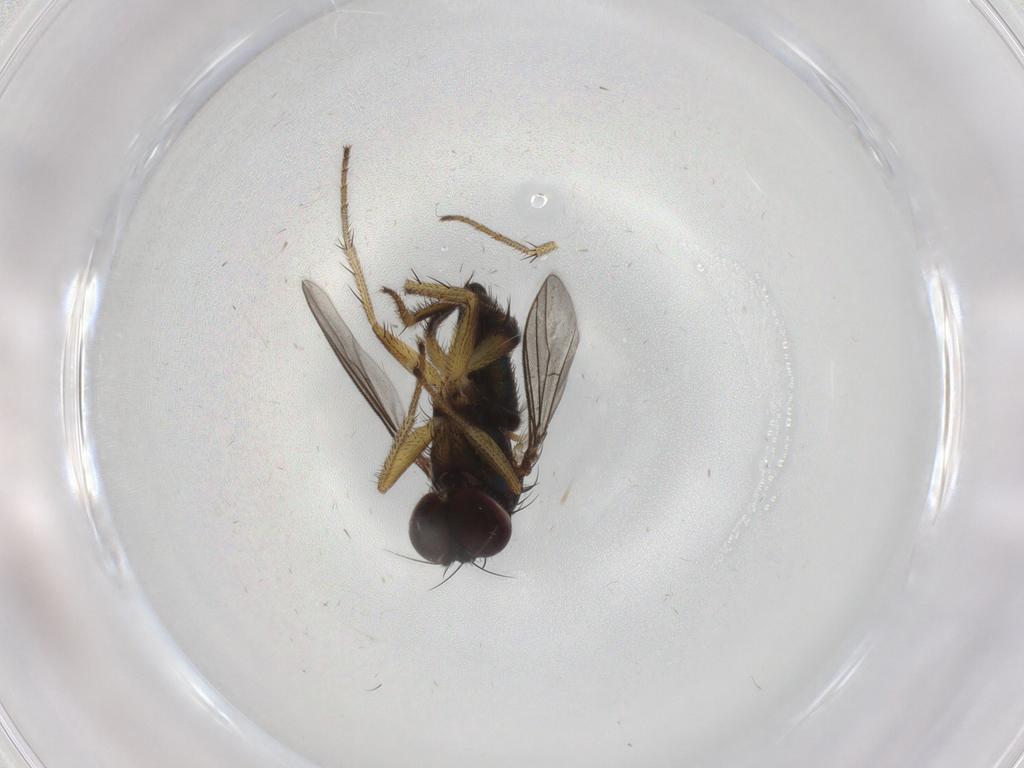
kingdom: Animalia
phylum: Arthropoda
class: Insecta
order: Diptera
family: Dolichopodidae
